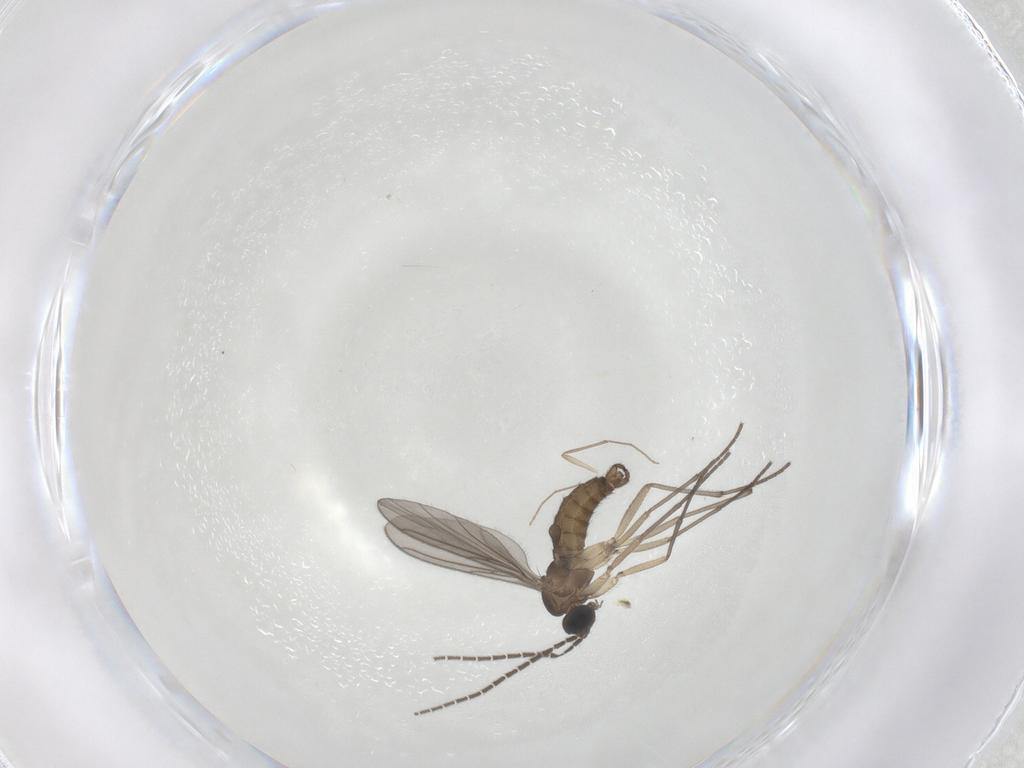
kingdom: Animalia
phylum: Arthropoda
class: Insecta
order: Diptera
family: Sciaridae
